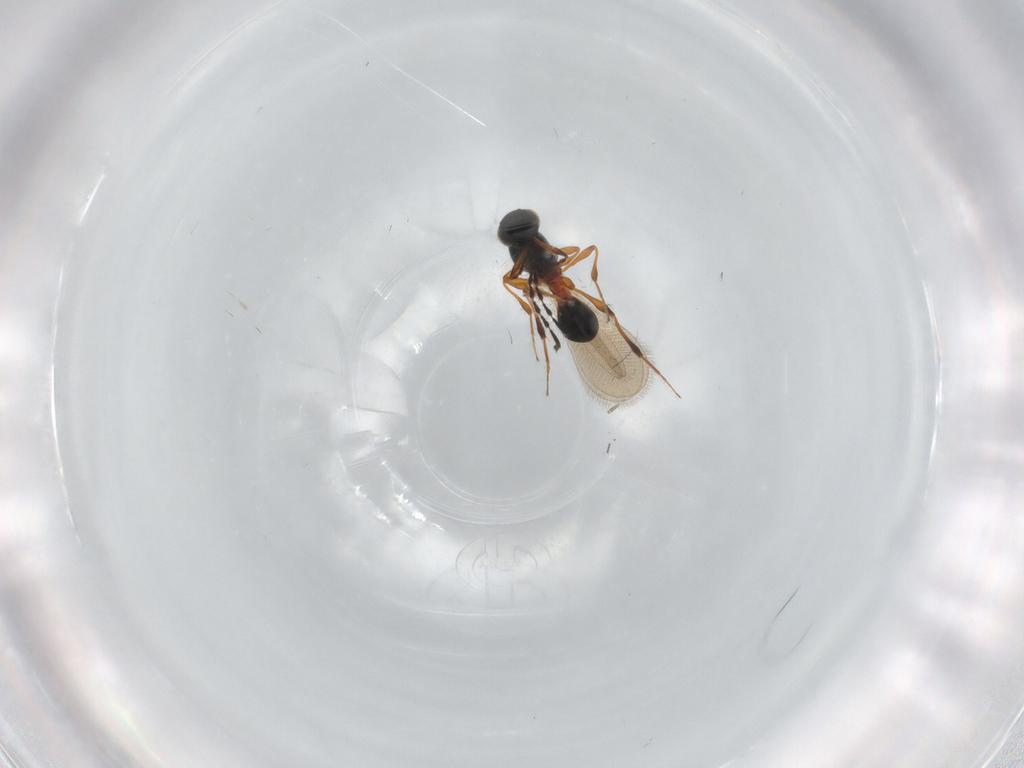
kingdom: Animalia
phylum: Arthropoda
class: Insecta
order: Hymenoptera
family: Platygastridae
